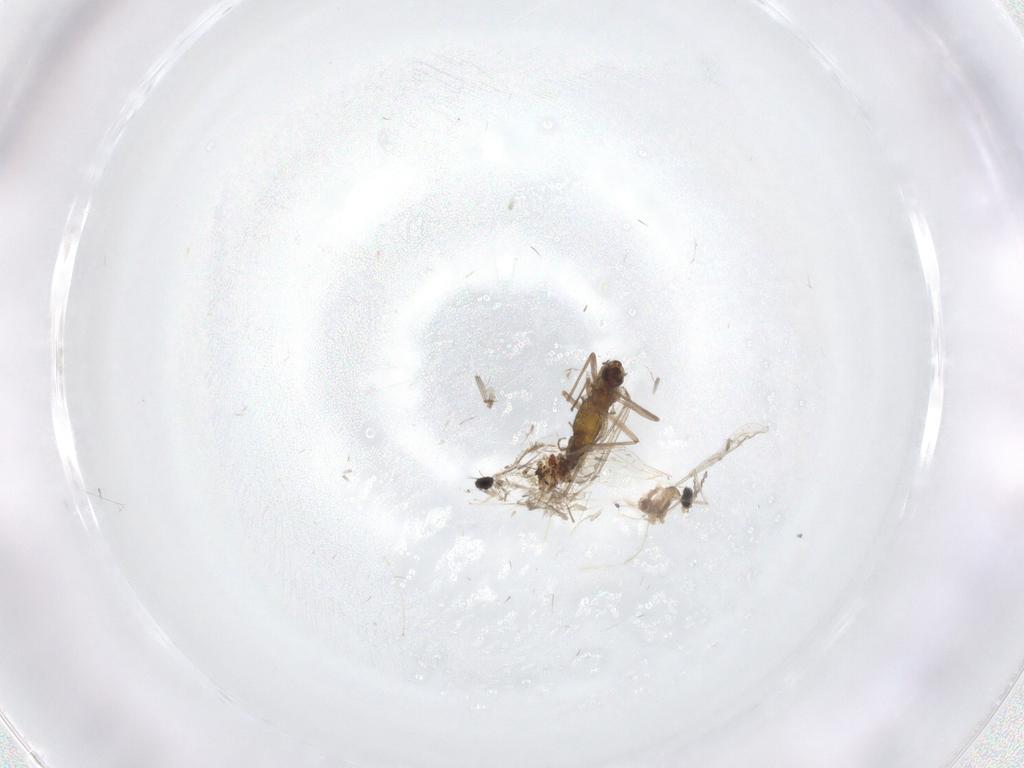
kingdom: Animalia
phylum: Arthropoda
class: Insecta
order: Diptera
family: Chironomidae
